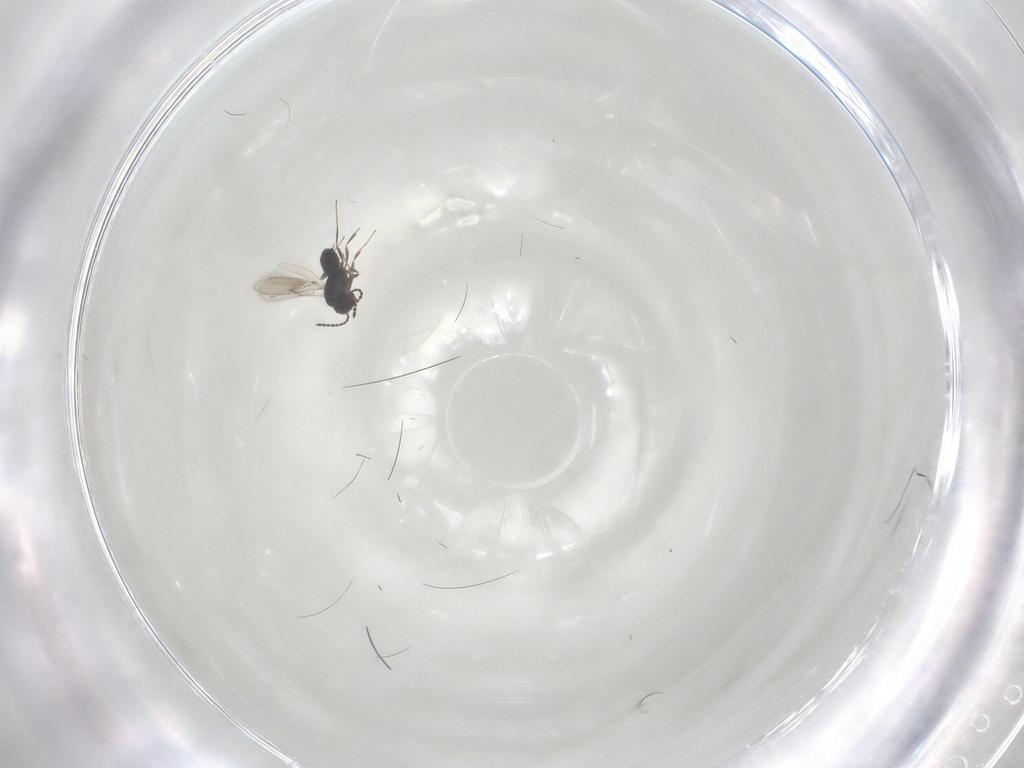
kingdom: Animalia
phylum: Arthropoda
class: Insecta
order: Hymenoptera
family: Scelionidae
